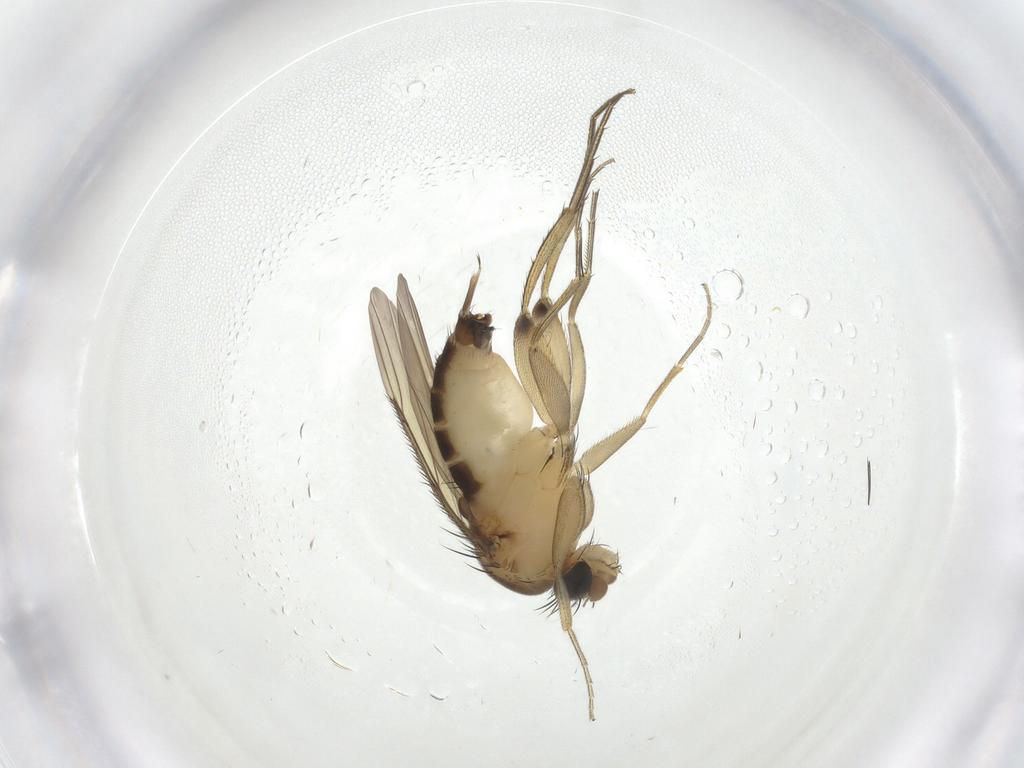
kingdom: Animalia
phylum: Arthropoda
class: Insecta
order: Diptera
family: Phoridae
